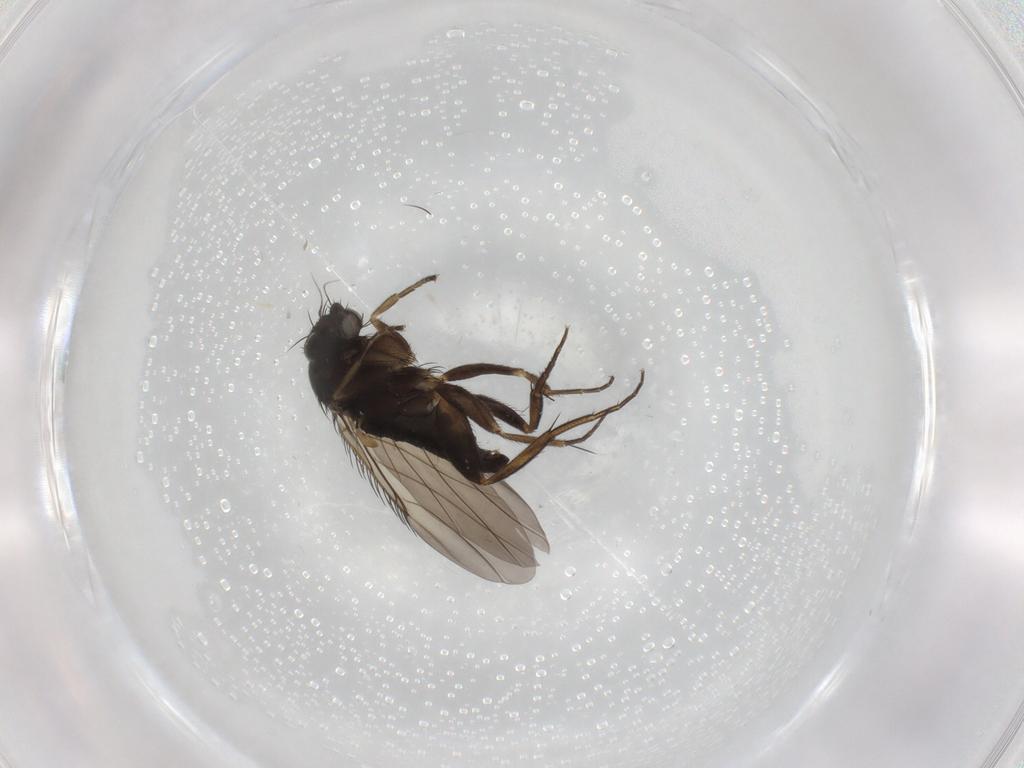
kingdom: Animalia
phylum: Arthropoda
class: Insecta
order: Diptera
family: Phoridae
